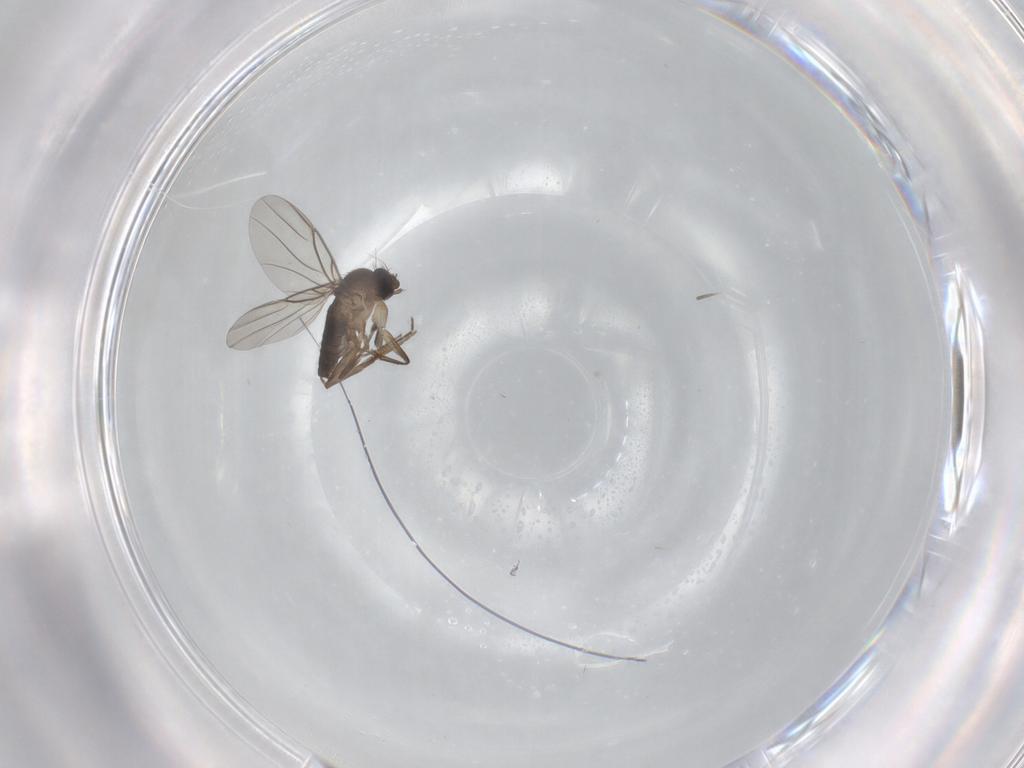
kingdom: Animalia
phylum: Arthropoda
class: Insecta
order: Diptera
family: Phoridae
